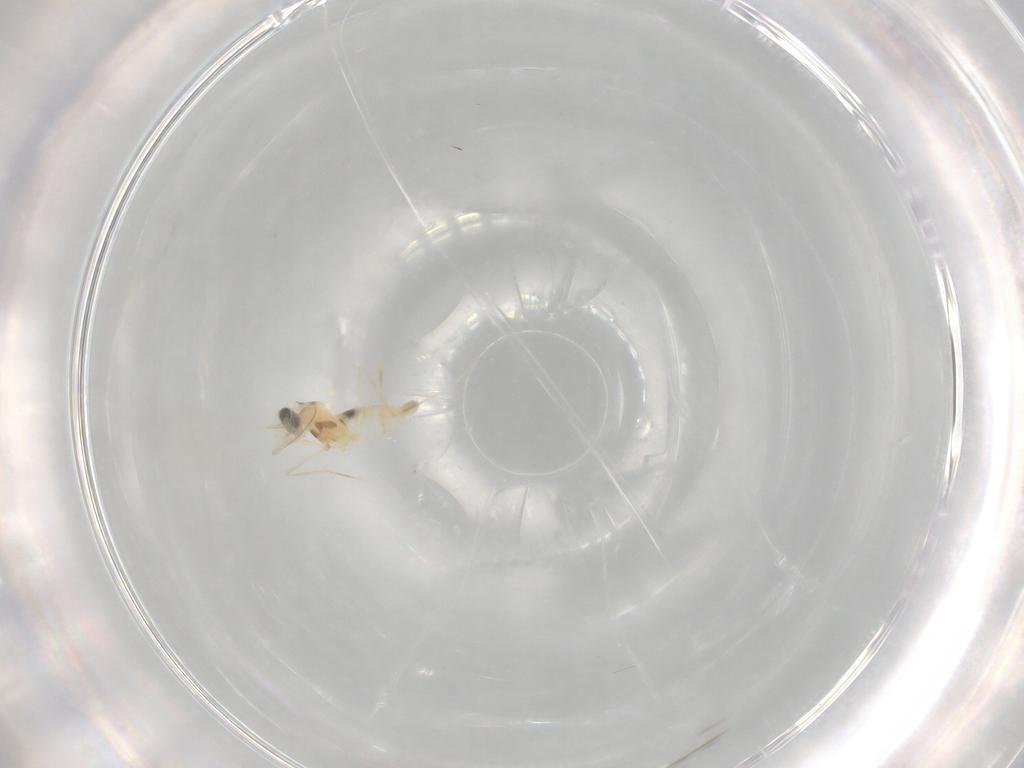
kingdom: Animalia
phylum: Arthropoda
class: Insecta
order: Diptera
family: Cecidomyiidae
